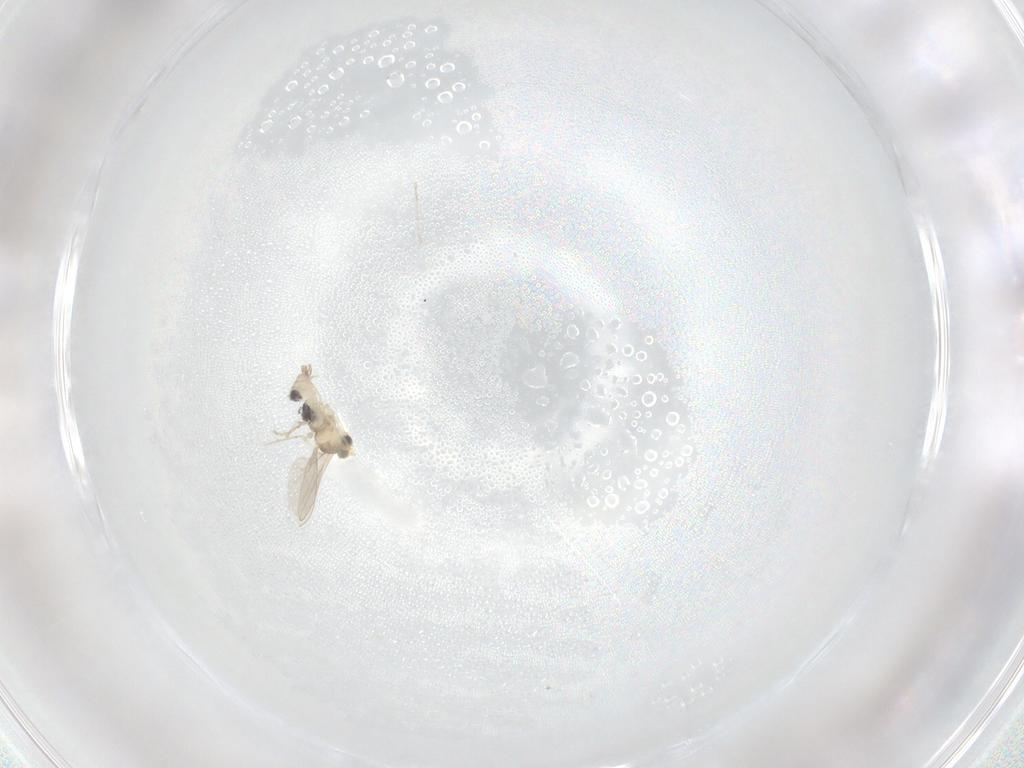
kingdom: Animalia
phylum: Arthropoda
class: Insecta
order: Diptera
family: Cecidomyiidae
